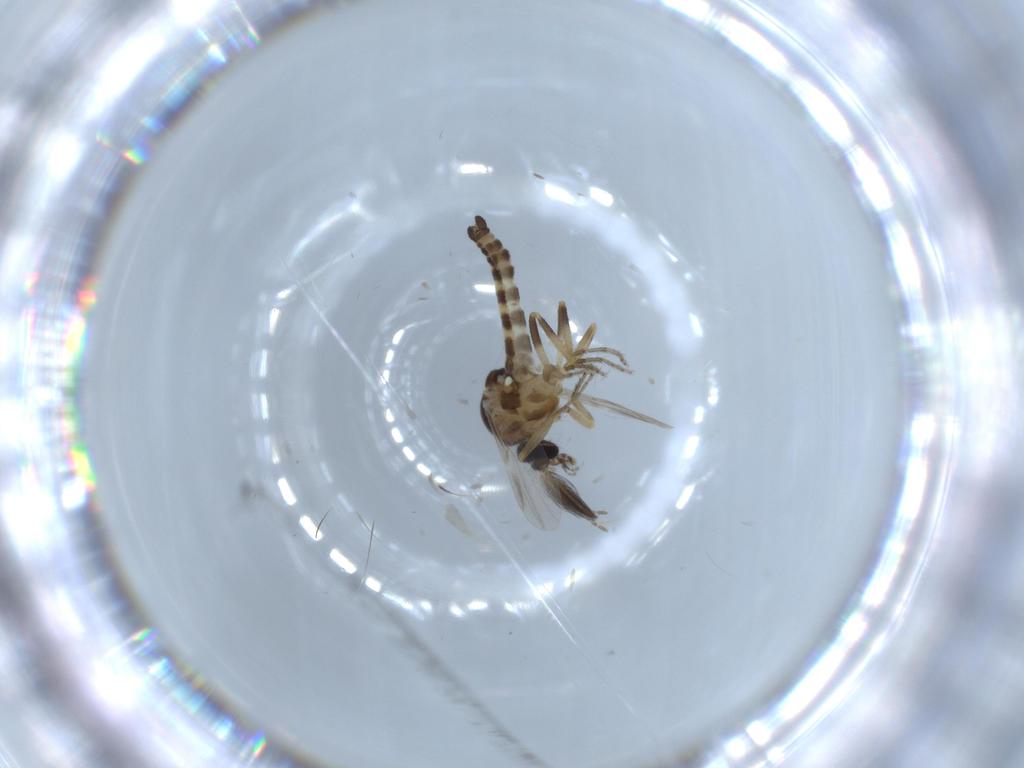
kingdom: Animalia
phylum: Arthropoda
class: Insecta
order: Diptera
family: Ceratopogonidae
